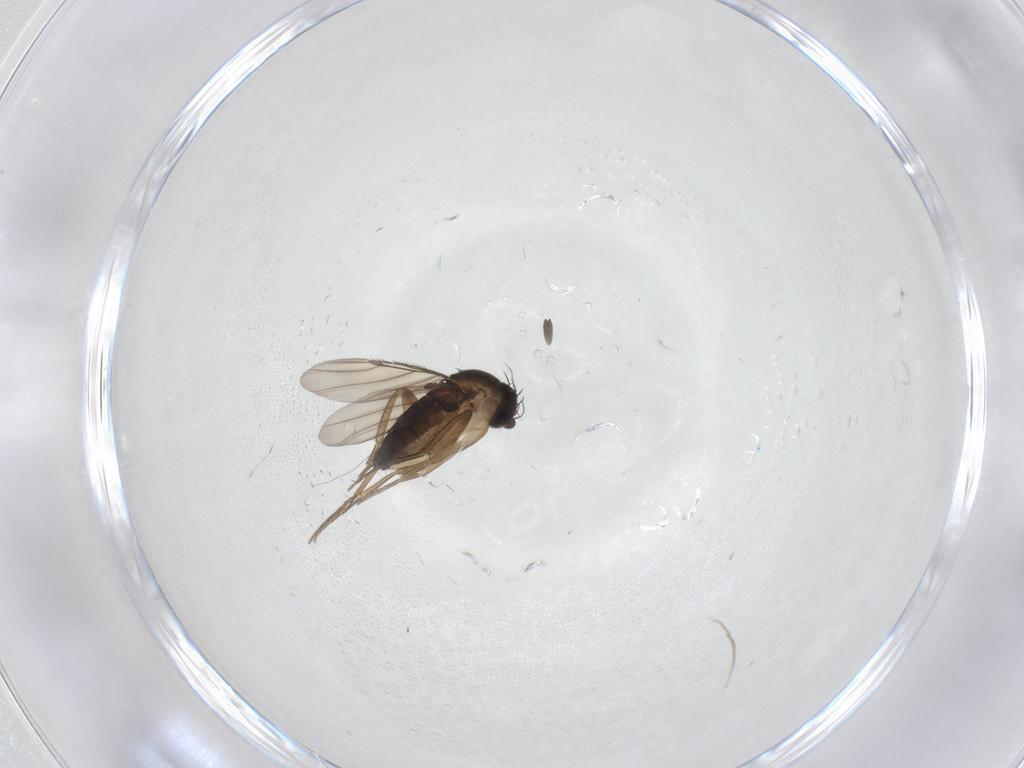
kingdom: Animalia
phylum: Arthropoda
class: Insecta
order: Diptera
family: Phoridae
